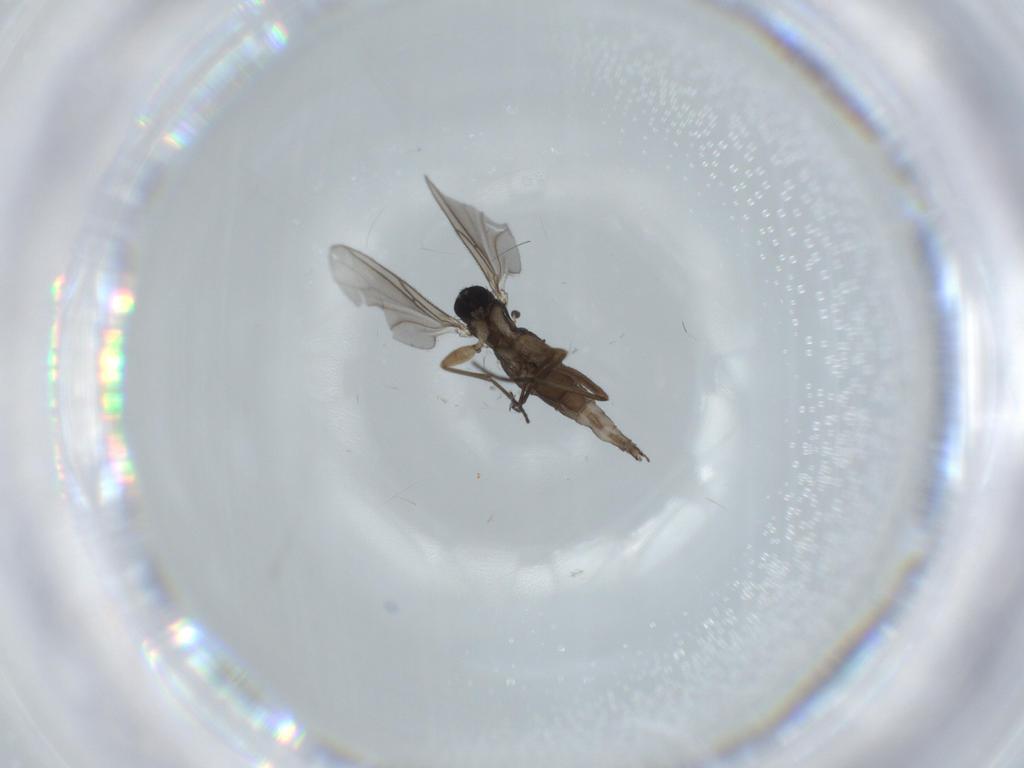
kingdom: Animalia
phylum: Arthropoda
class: Insecta
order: Diptera
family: Sciaridae
